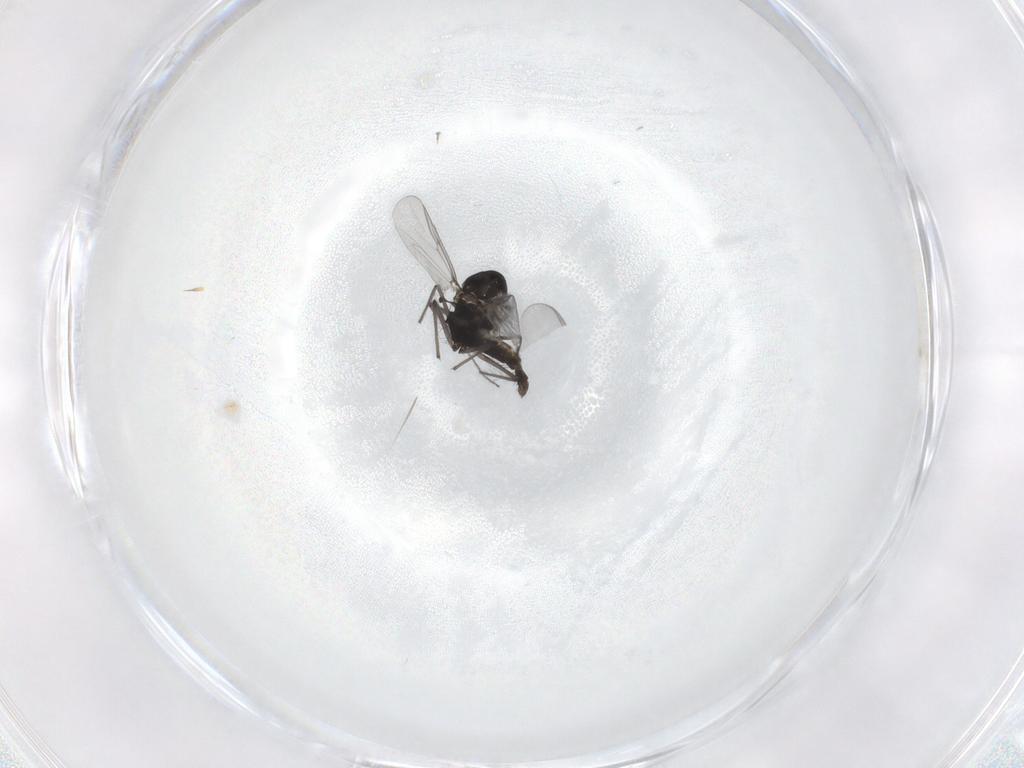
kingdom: Animalia
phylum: Arthropoda
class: Insecta
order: Diptera
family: Chironomidae
